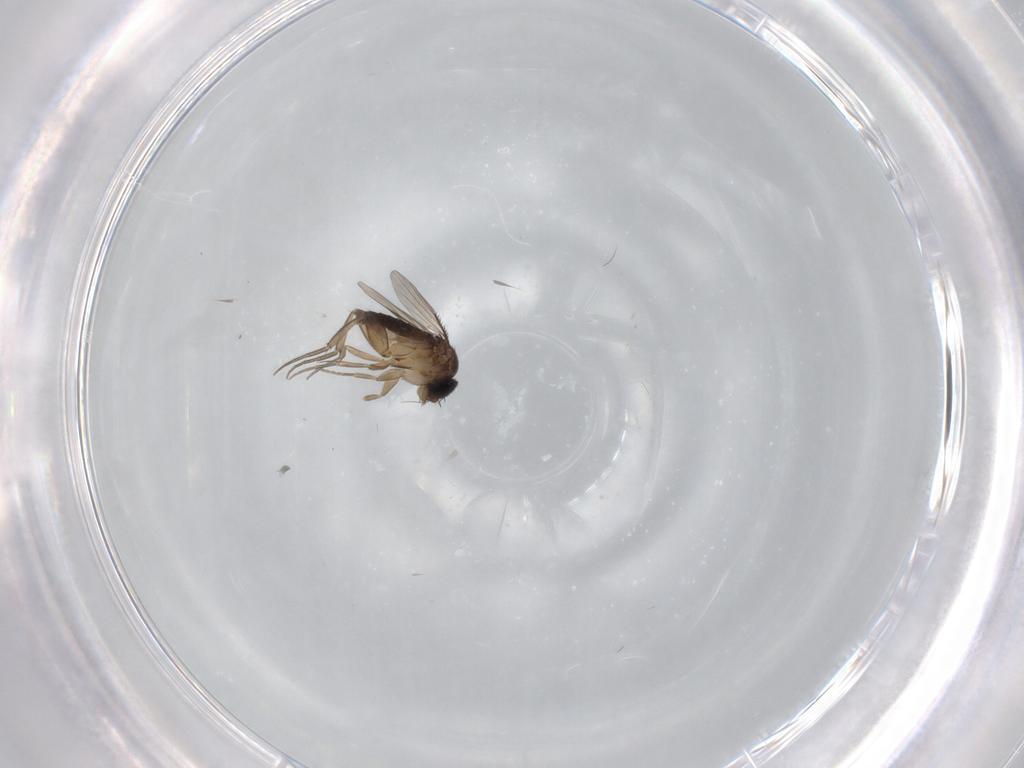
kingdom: Animalia
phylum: Arthropoda
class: Insecta
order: Diptera
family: Phoridae
